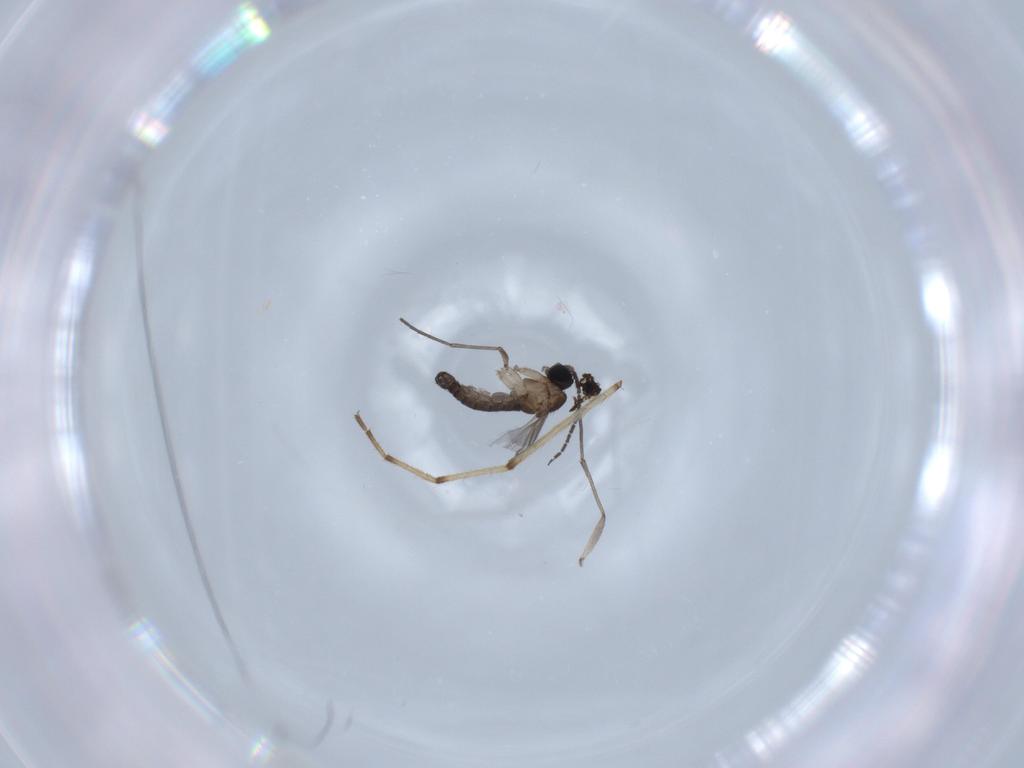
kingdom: Animalia
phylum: Arthropoda
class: Insecta
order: Diptera
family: Sciaridae
